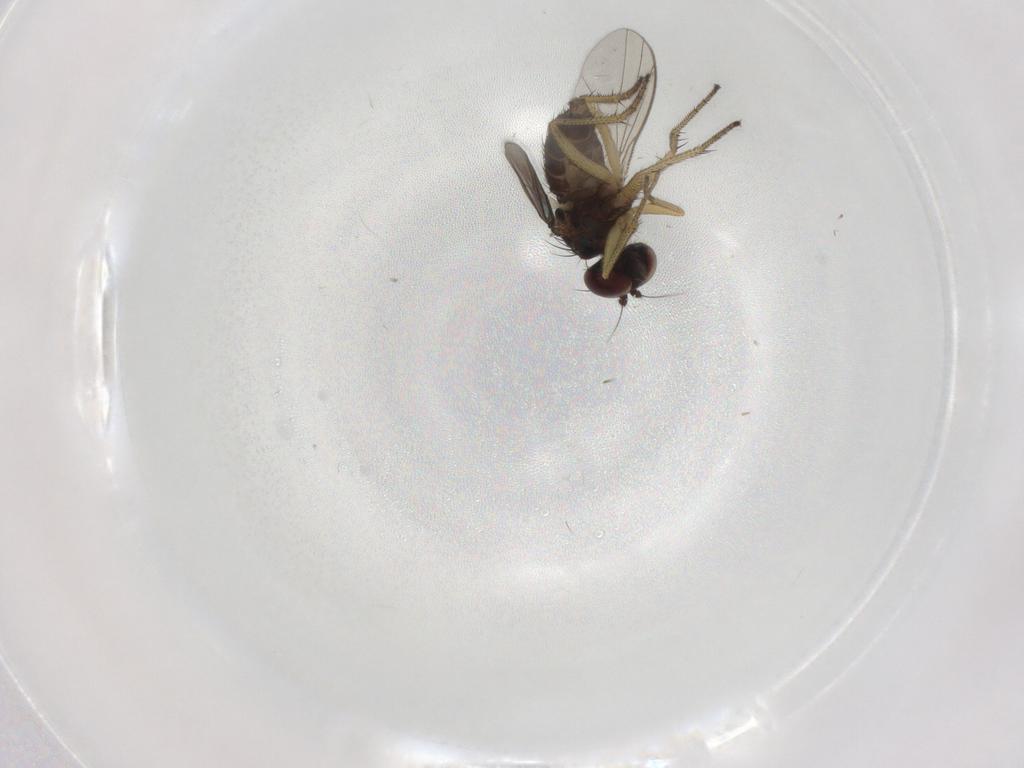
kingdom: Animalia
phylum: Arthropoda
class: Insecta
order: Diptera
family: Dolichopodidae
